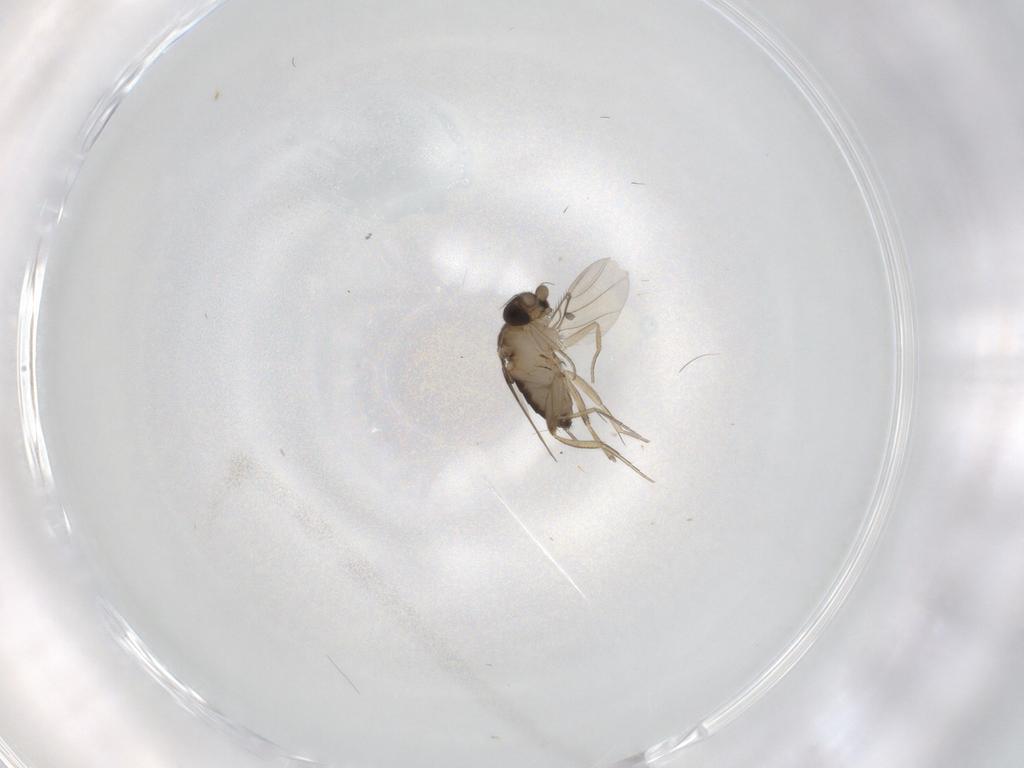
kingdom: Animalia
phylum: Arthropoda
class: Insecta
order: Diptera
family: Phoridae
